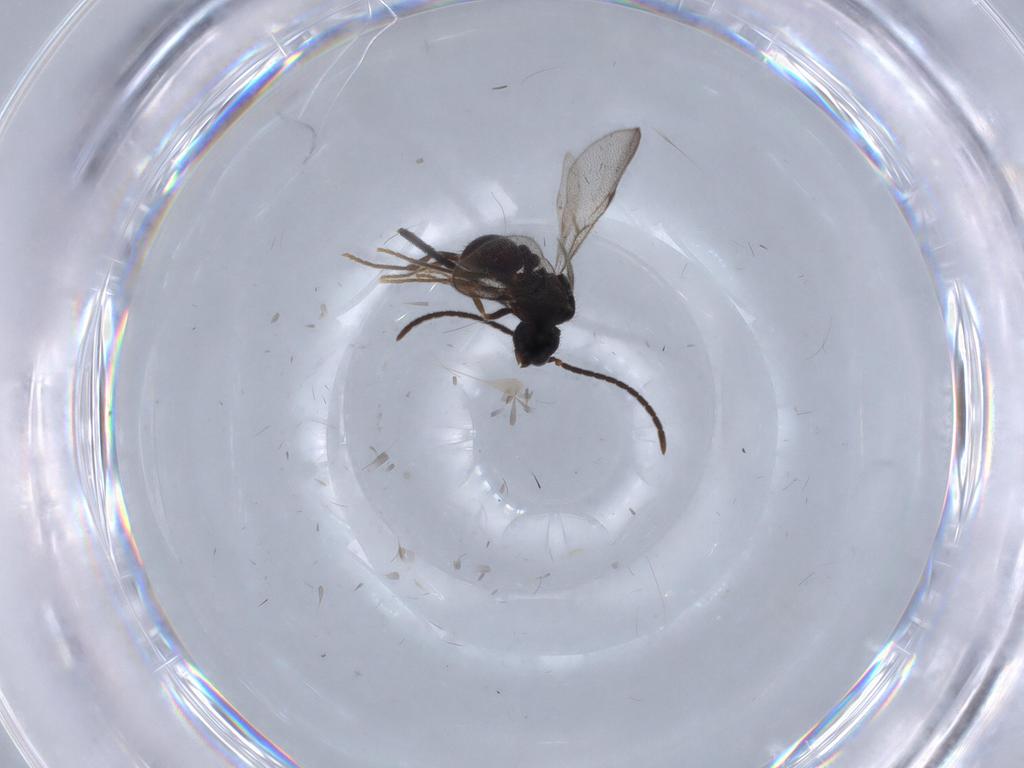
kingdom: Animalia
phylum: Arthropoda
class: Insecta
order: Hymenoptera
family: Formicidae
